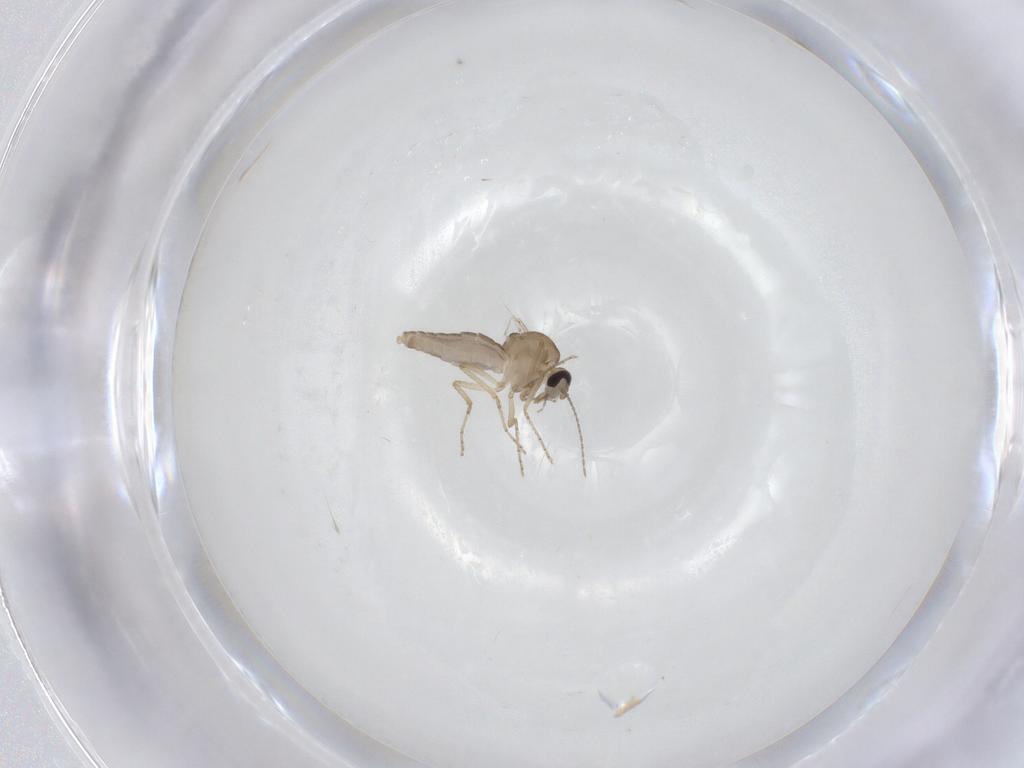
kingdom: Animalia
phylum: Arthropoda
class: Insecta
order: Diptera
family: Ceratopogonidae
